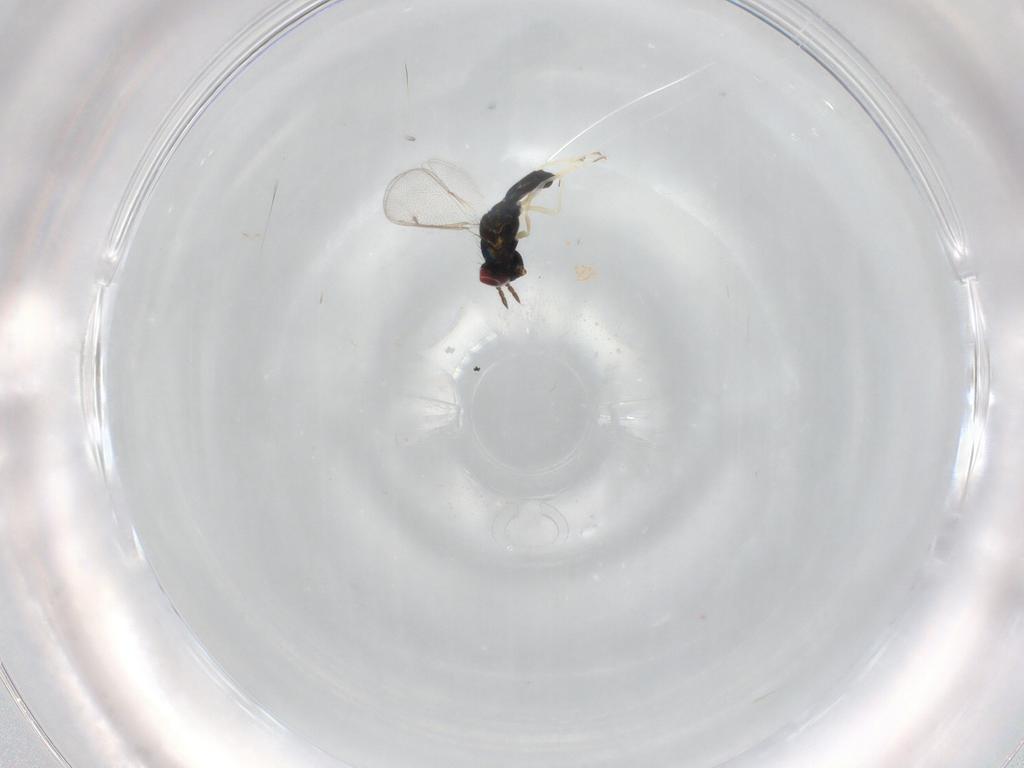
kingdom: Animalia
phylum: Arthropoda
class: Insecta
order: Hymenoptera
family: Eulophidae
